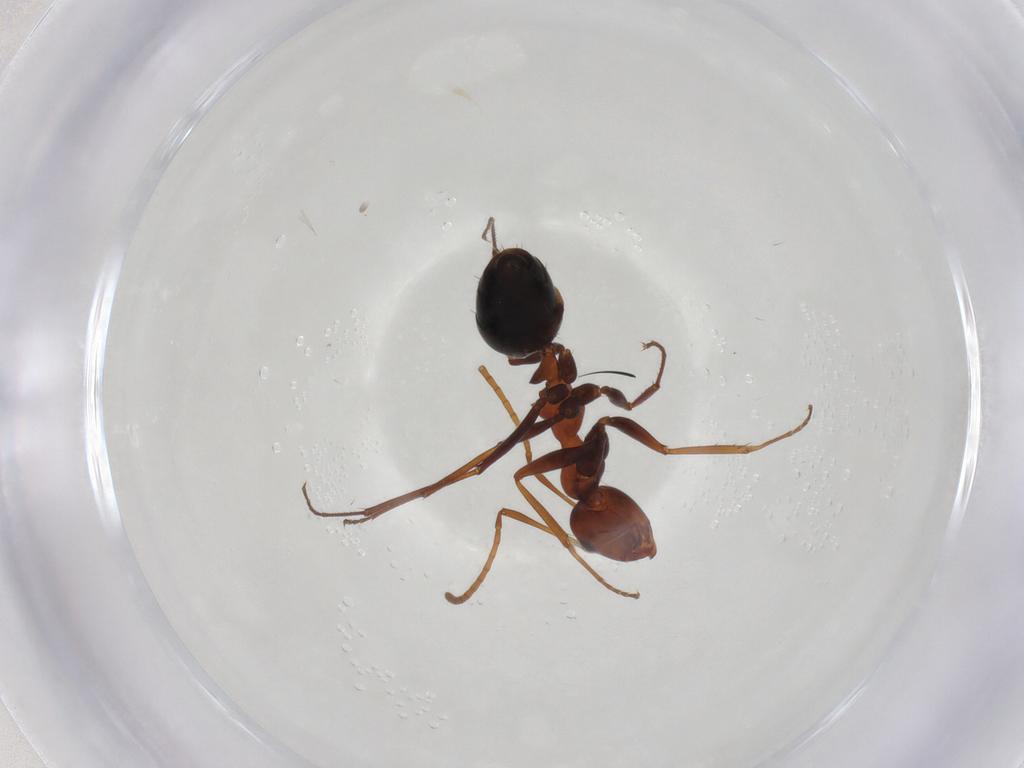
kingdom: Animalia
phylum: Arthropoda
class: Insecta
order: Hymenoptera
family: Formicidae
